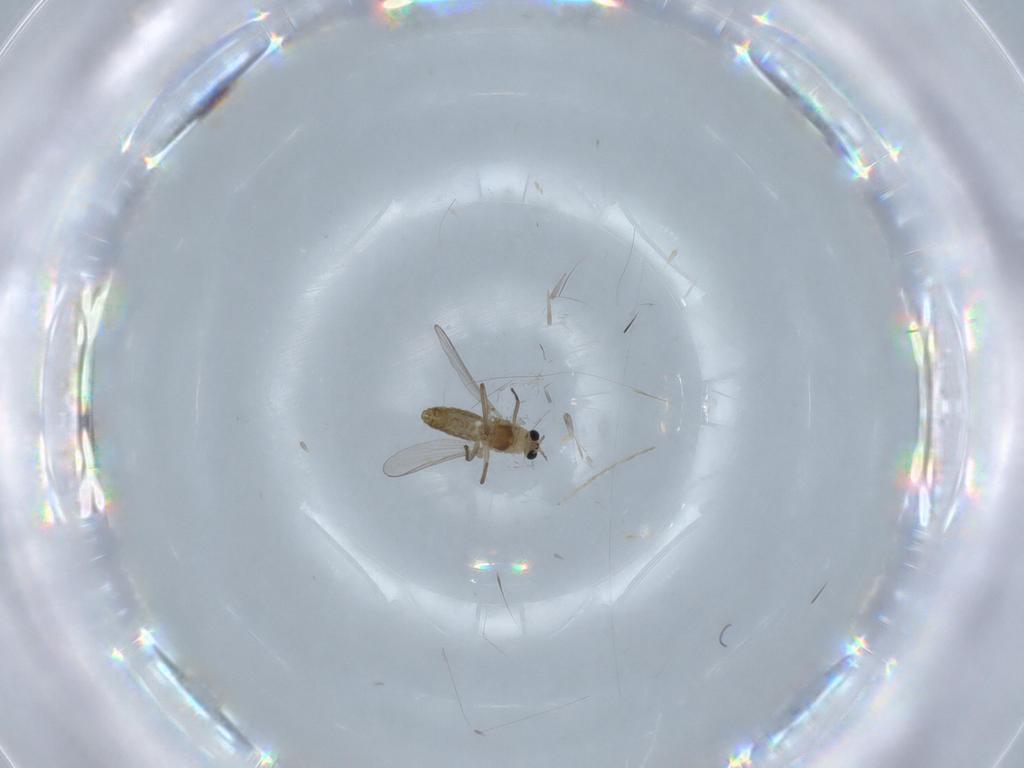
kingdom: Animalia
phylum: Arthropoda
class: Insecta
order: Diptera
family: Chironomidae
